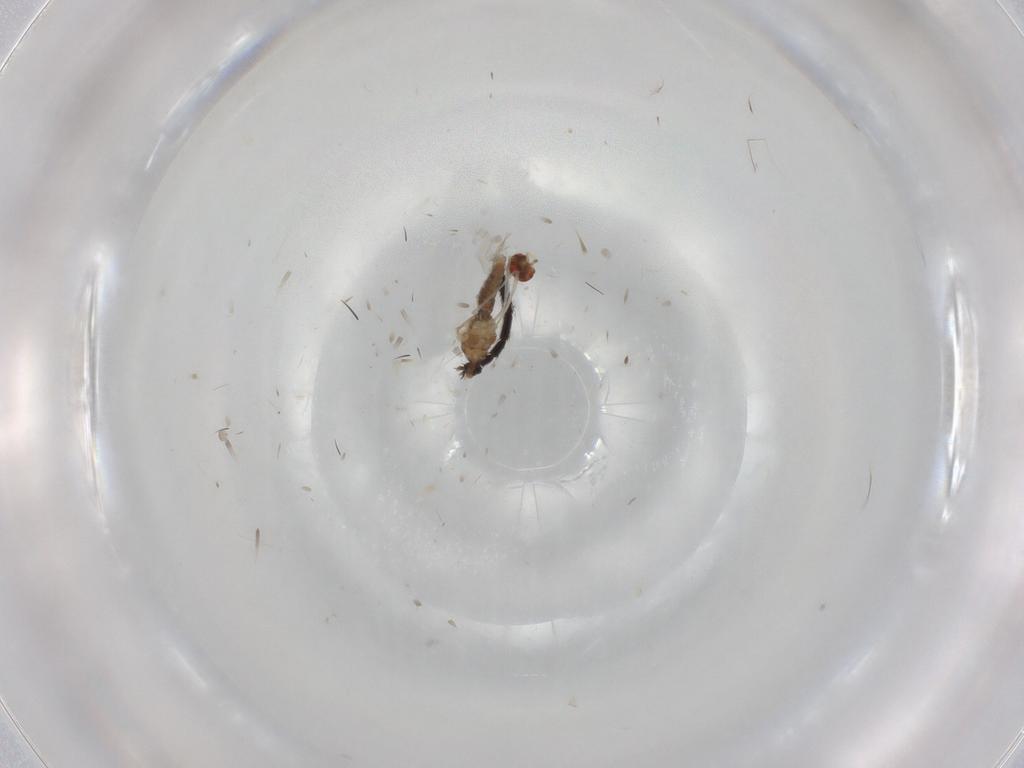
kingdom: Animalia
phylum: Arthropoda
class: Insecta
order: Diptera
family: Cecidomyiidae
